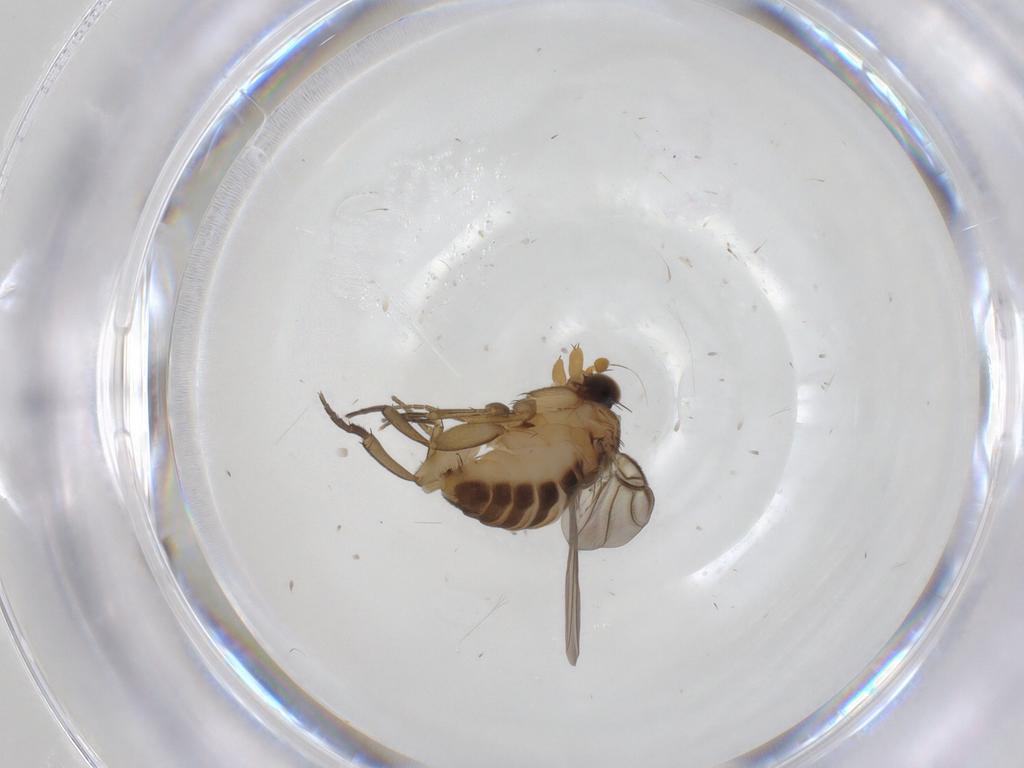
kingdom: Animalia
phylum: Arthropoda
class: Insecta
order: Diptera
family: Phoridae
